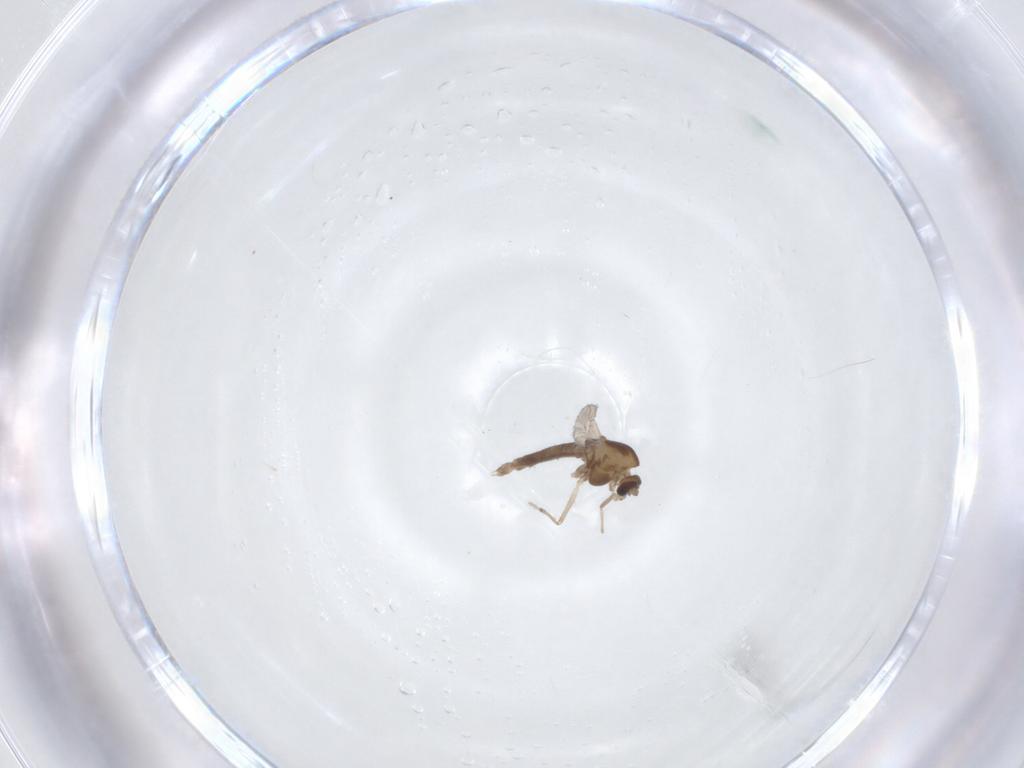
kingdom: Animalia
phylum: Arthropoda
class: Insecta
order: Diptera
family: Chironomidae
